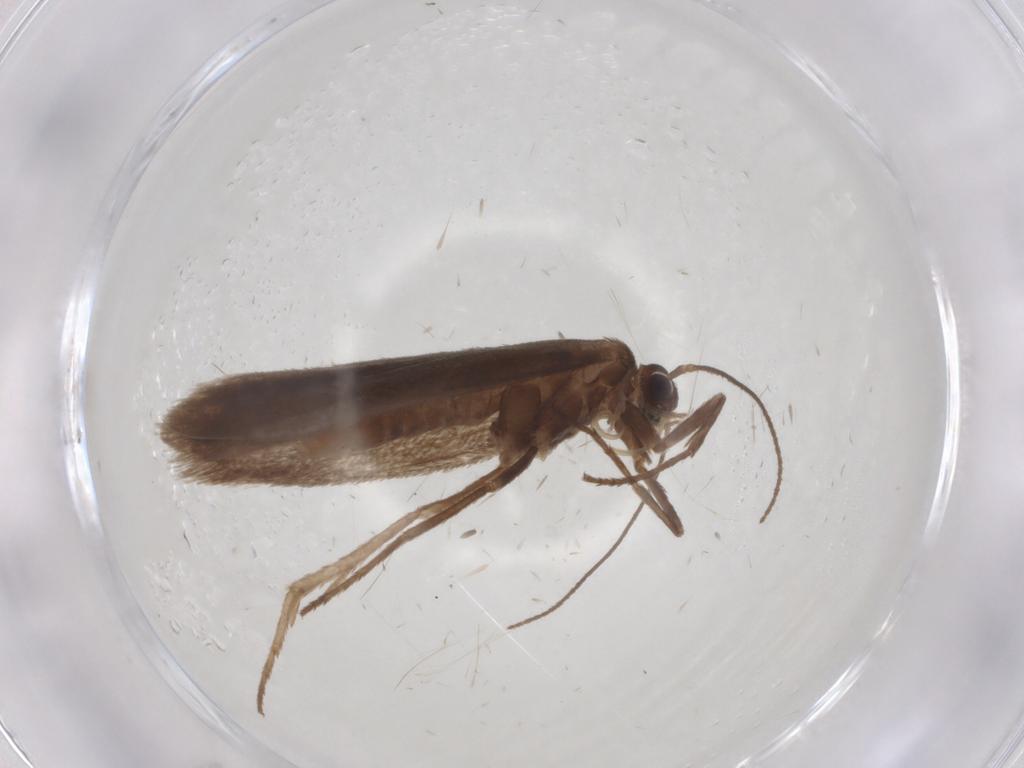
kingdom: Animalia
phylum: Arthropoda
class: Insecta
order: Lepidoptera
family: Limacodidae
